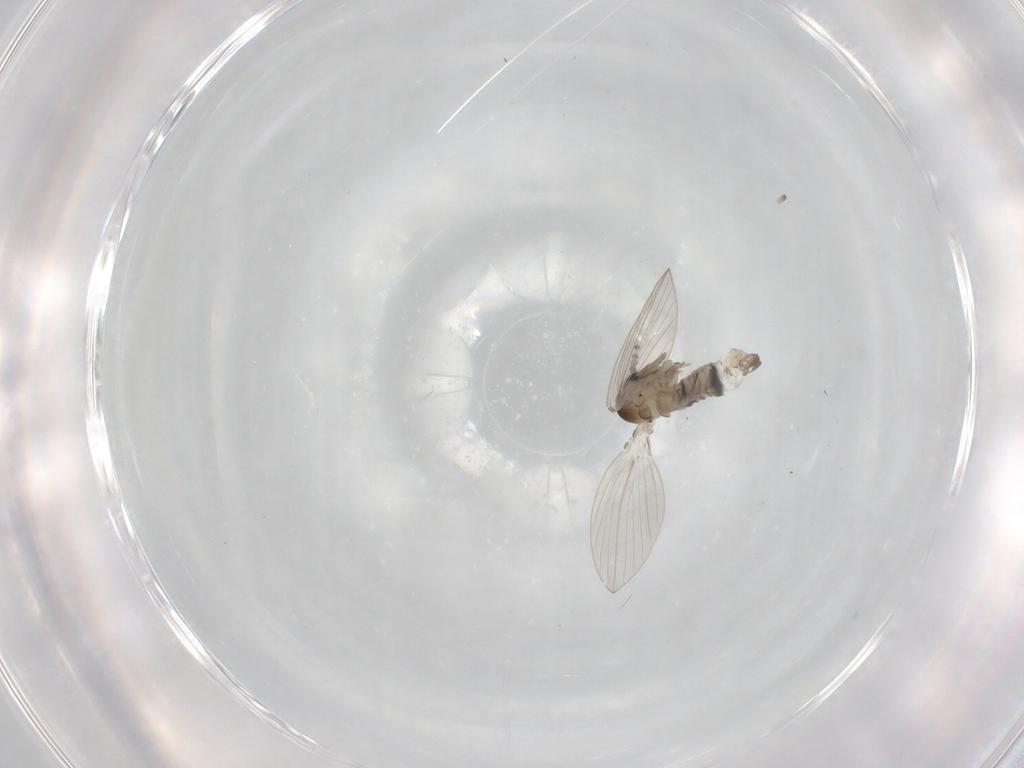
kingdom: Animalia
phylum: Arthropoda
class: Insecta
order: Diptera
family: Psychodidae
